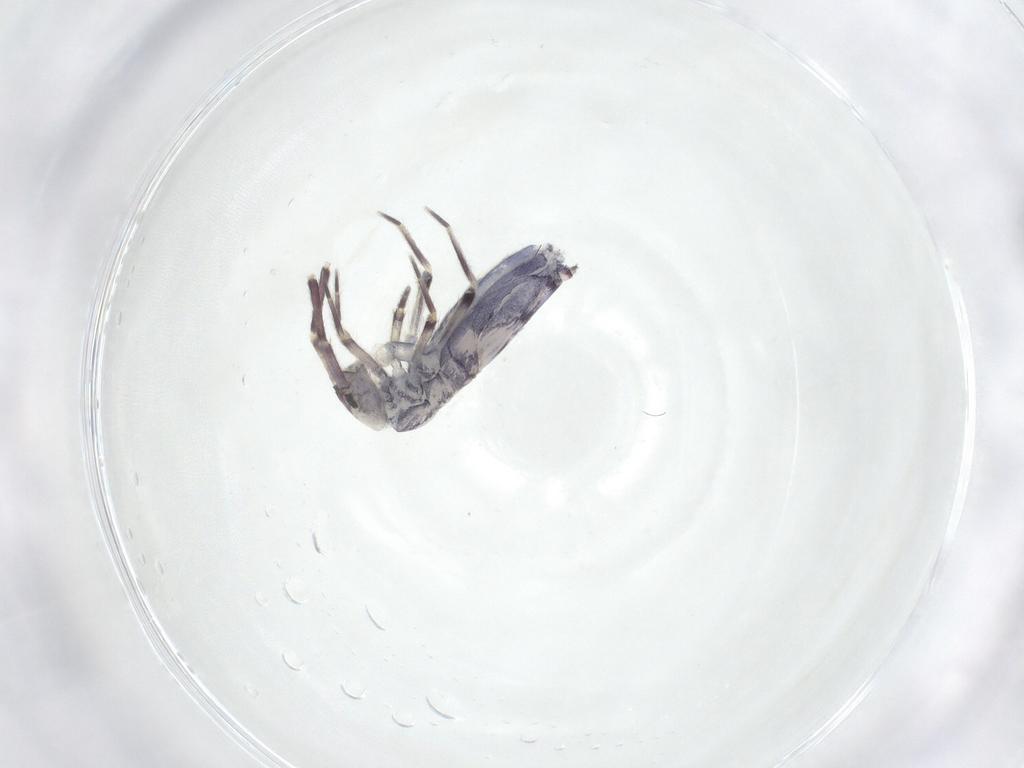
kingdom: Animalia
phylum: Arthropoda
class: Collembola
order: Entomobryomorpha
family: Entomobryidae
